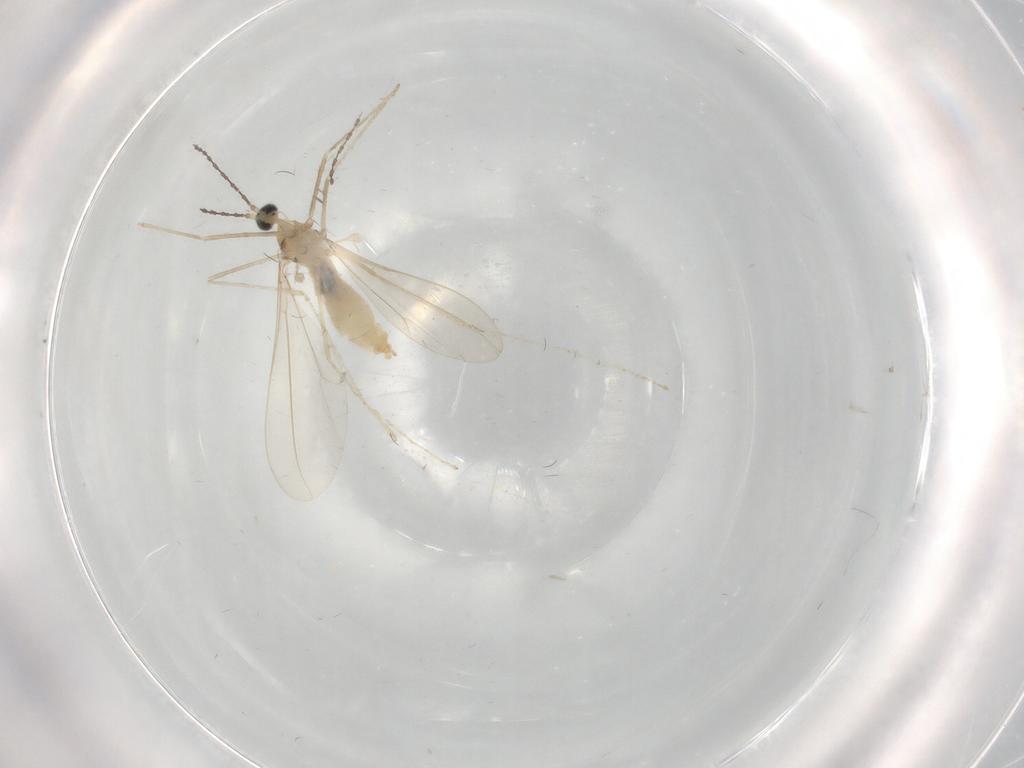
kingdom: Animalia
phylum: Arthropoda
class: Insecta
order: Diptera
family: Cecidomyiidae
